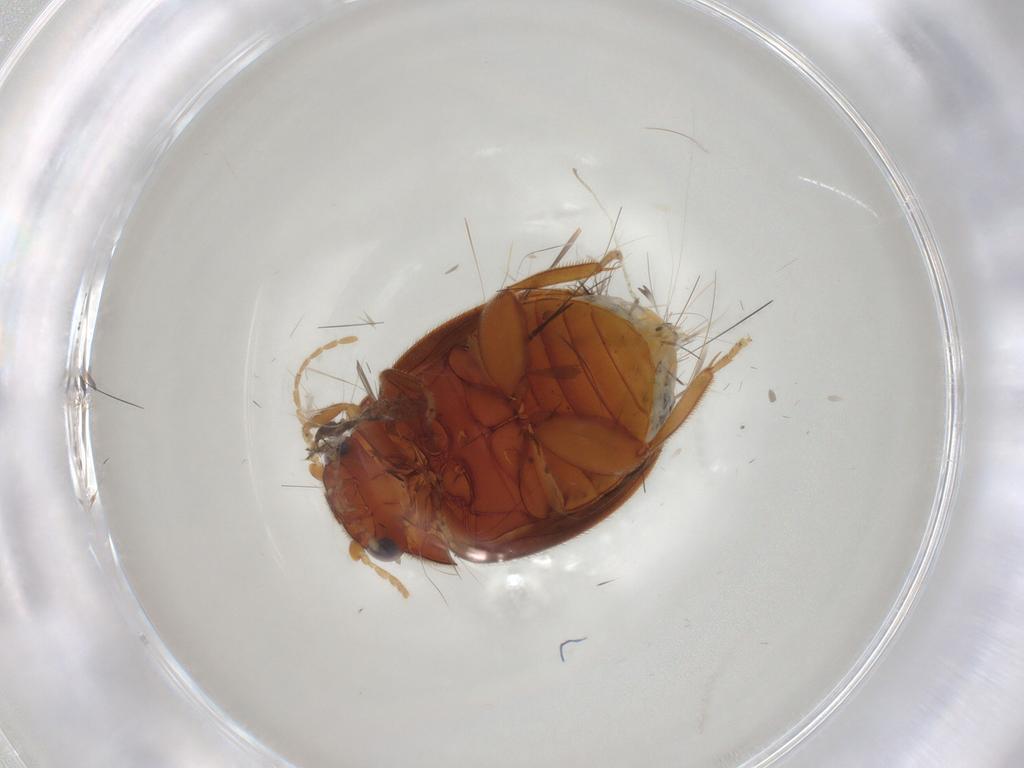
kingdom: Animalia
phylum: Arthropoda
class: Insecta
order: Coleoptera
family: Scirtidae
